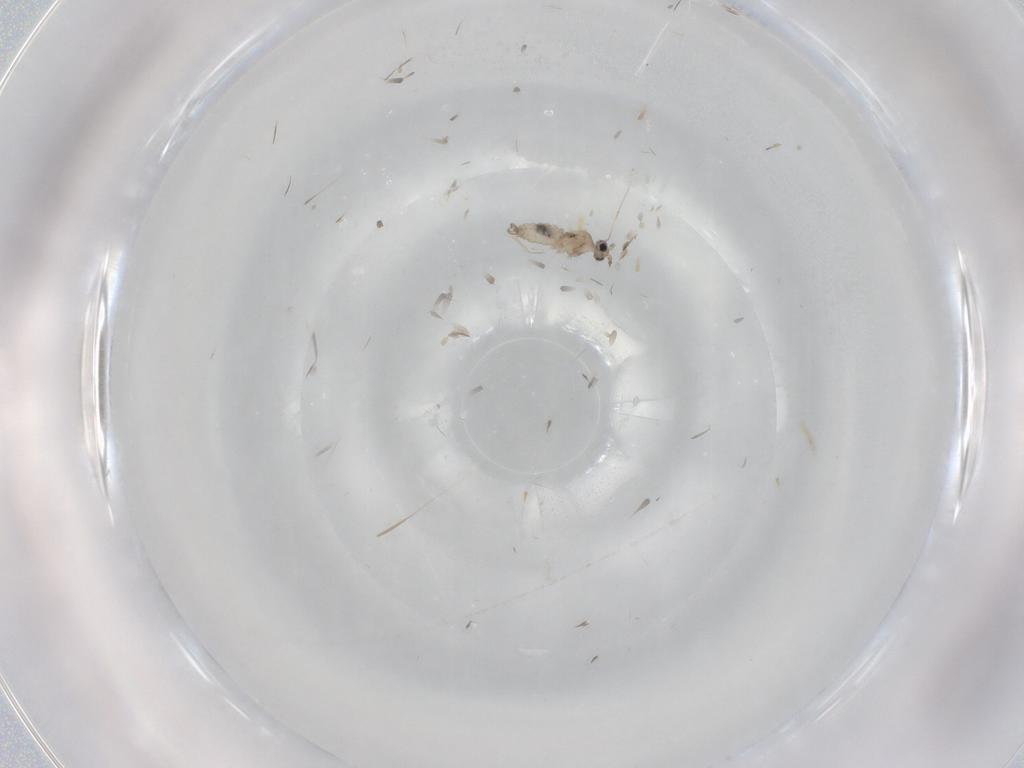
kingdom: Animalia
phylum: Arthropoda
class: Insecta
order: Diptera
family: Cecidomyiidae
